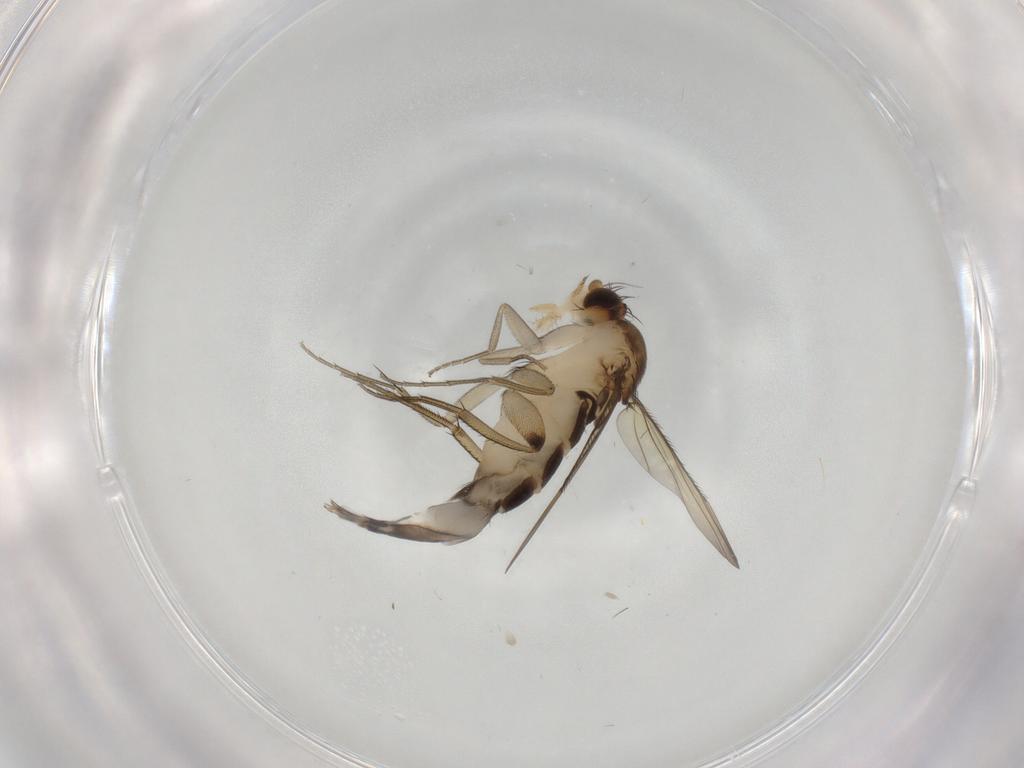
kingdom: Animalia
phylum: Arthropoda
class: Insecta
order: Diptera
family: Phoridae
